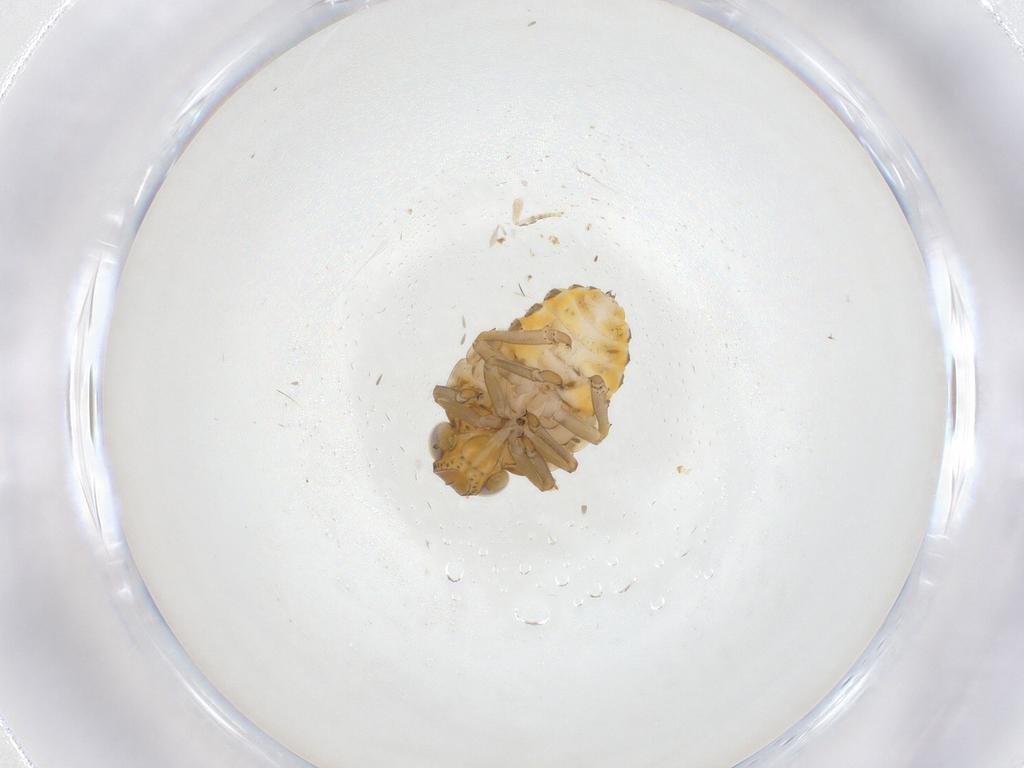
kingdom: Animalia
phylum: Arthropoda
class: Insecta
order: Hemiptera
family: Issidae
